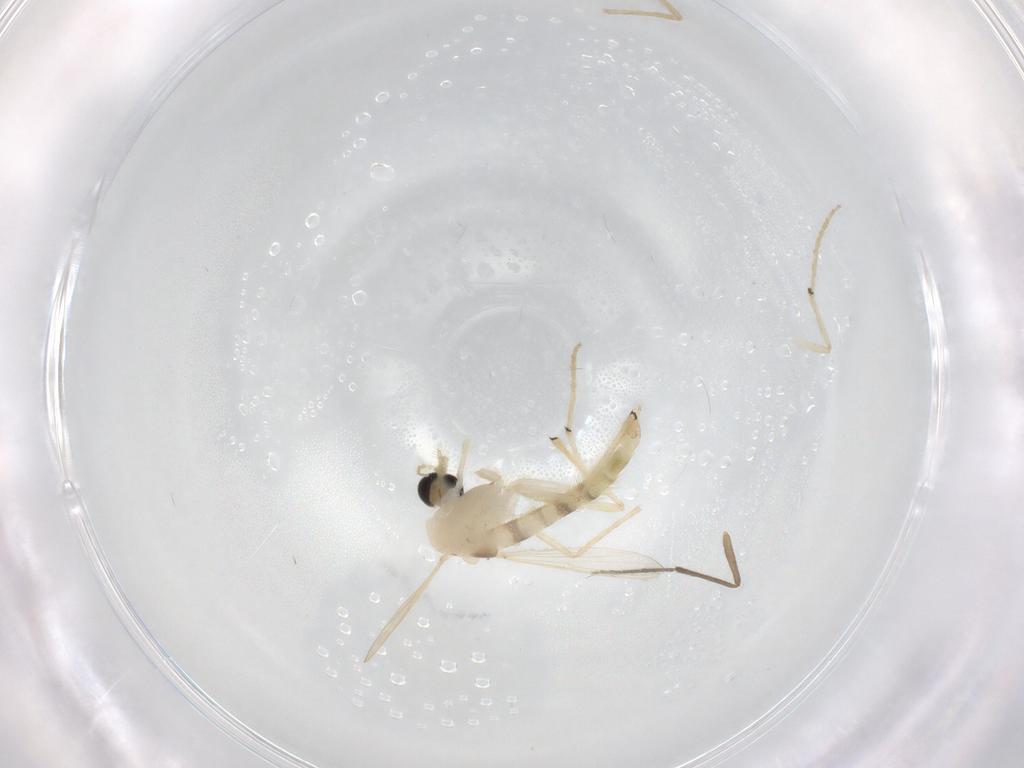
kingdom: Animalia
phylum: Arthropoda
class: Insecta
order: Diptera
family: Chironomidae
